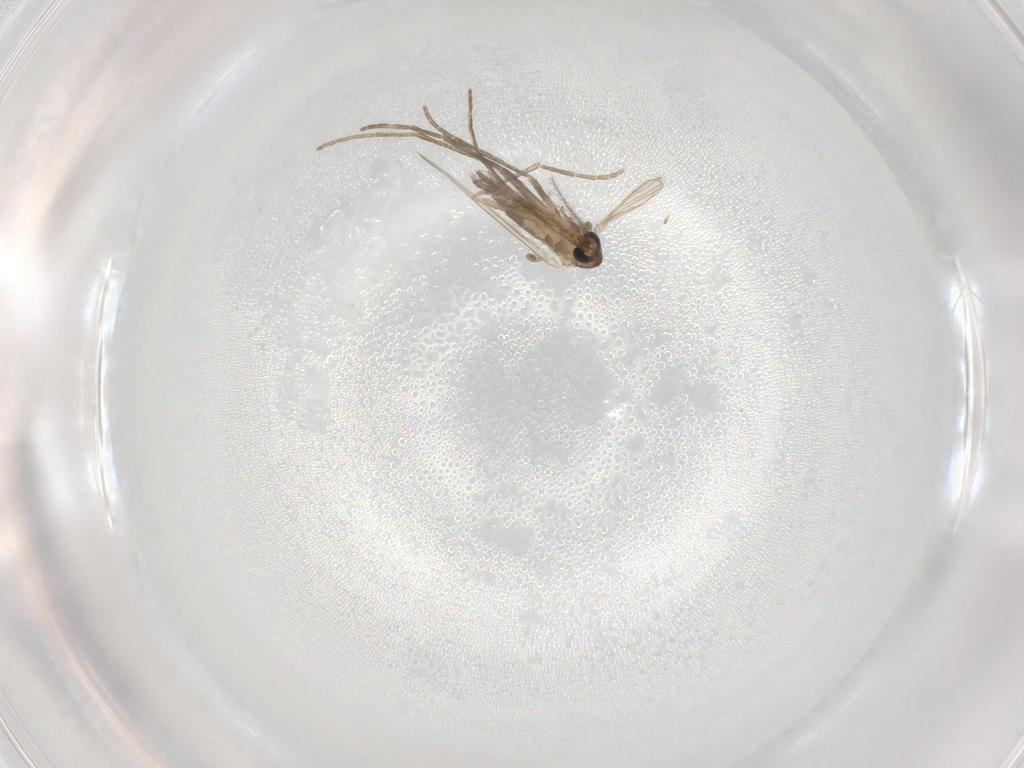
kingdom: Animalia
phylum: Arthropoda
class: Insecta
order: Diptera
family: Psychodidae
